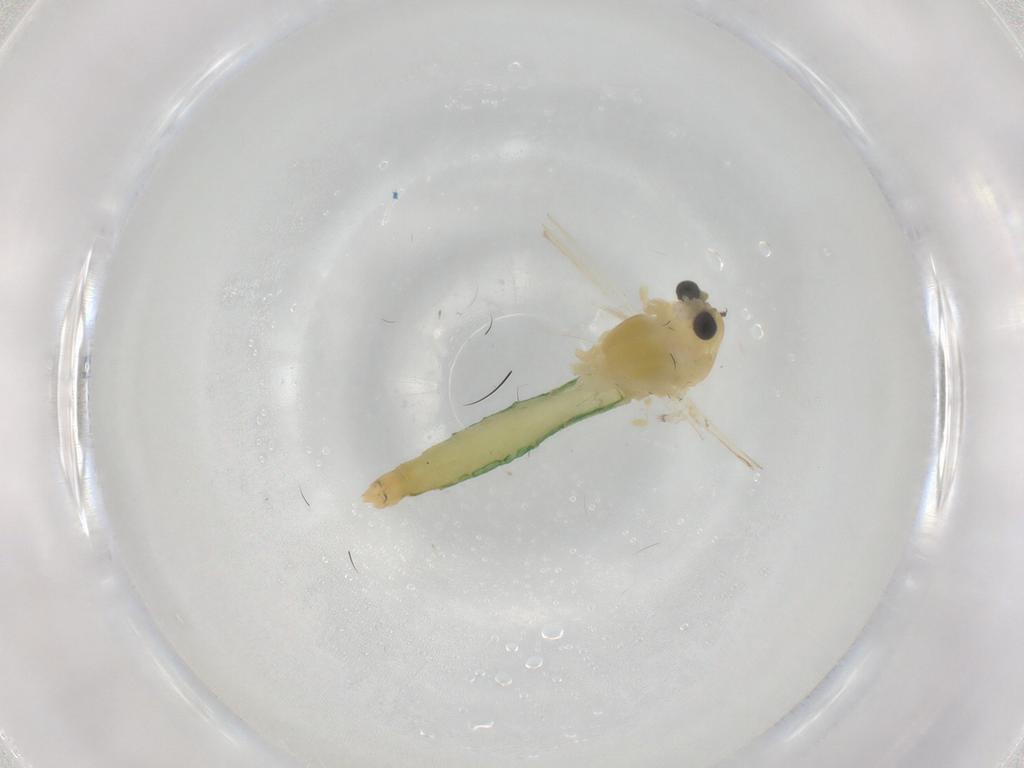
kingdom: Animalia
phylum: Arthropoda
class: Insecta
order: Diptera
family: Chironomidae
